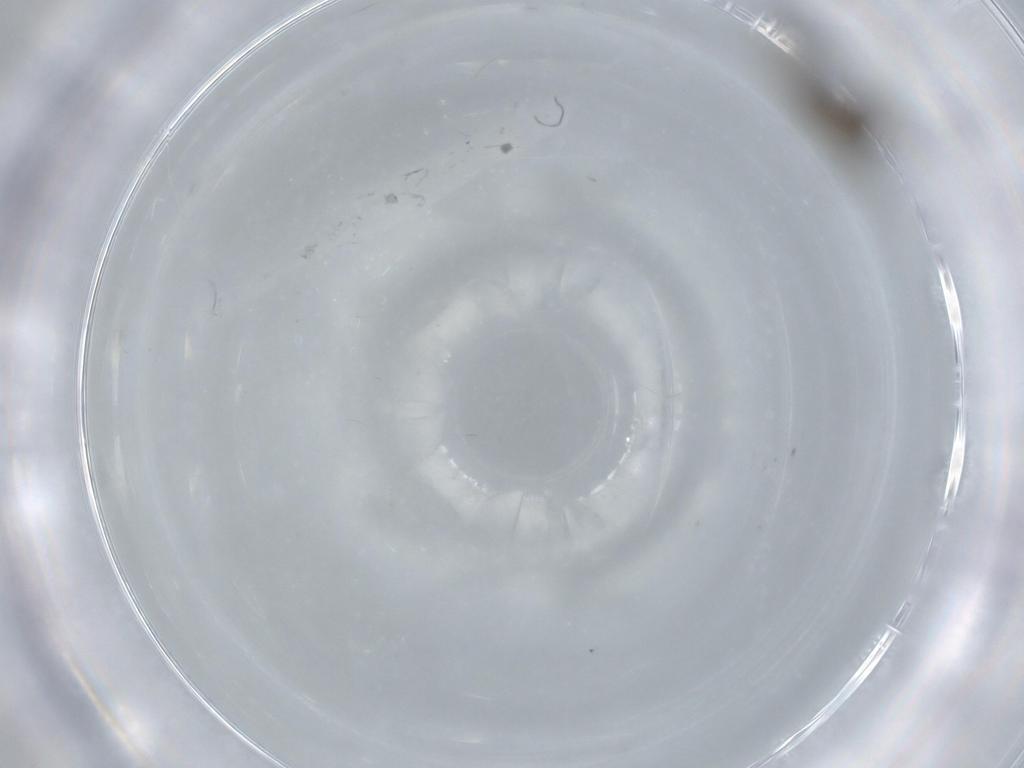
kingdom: Animalia
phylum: Arthropoda
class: Insecta
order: Diptera
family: Sciaridae
